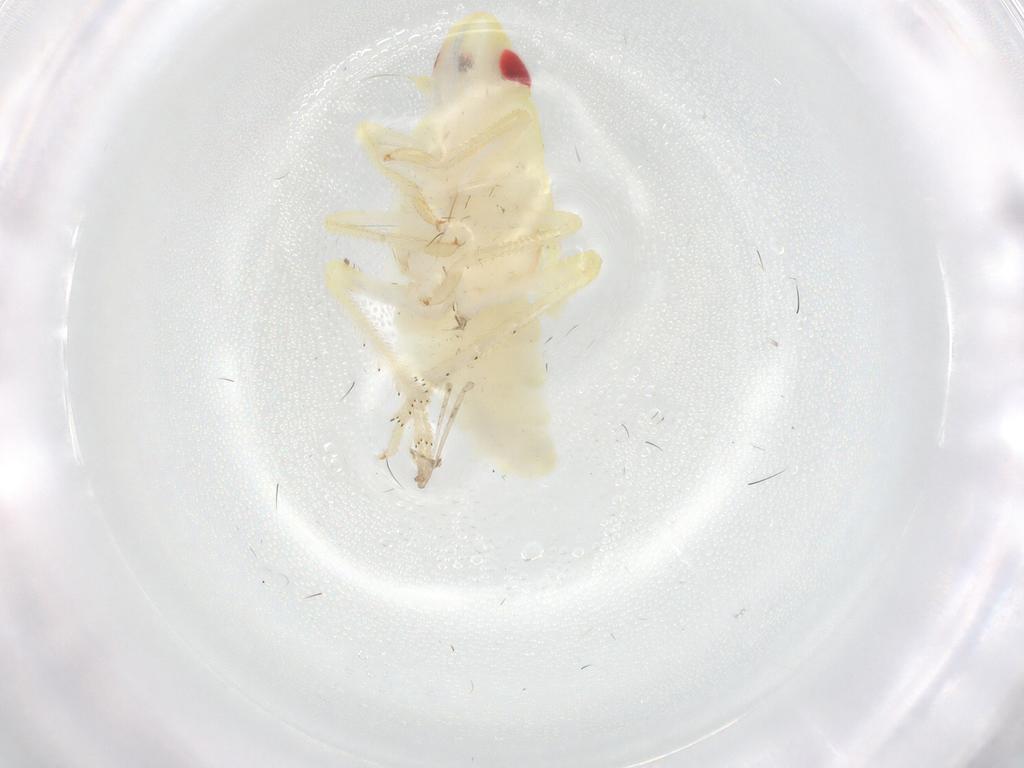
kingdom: Animalia
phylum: Arthropoda
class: Insecta
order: Hemiptera
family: Tropiduchidae
